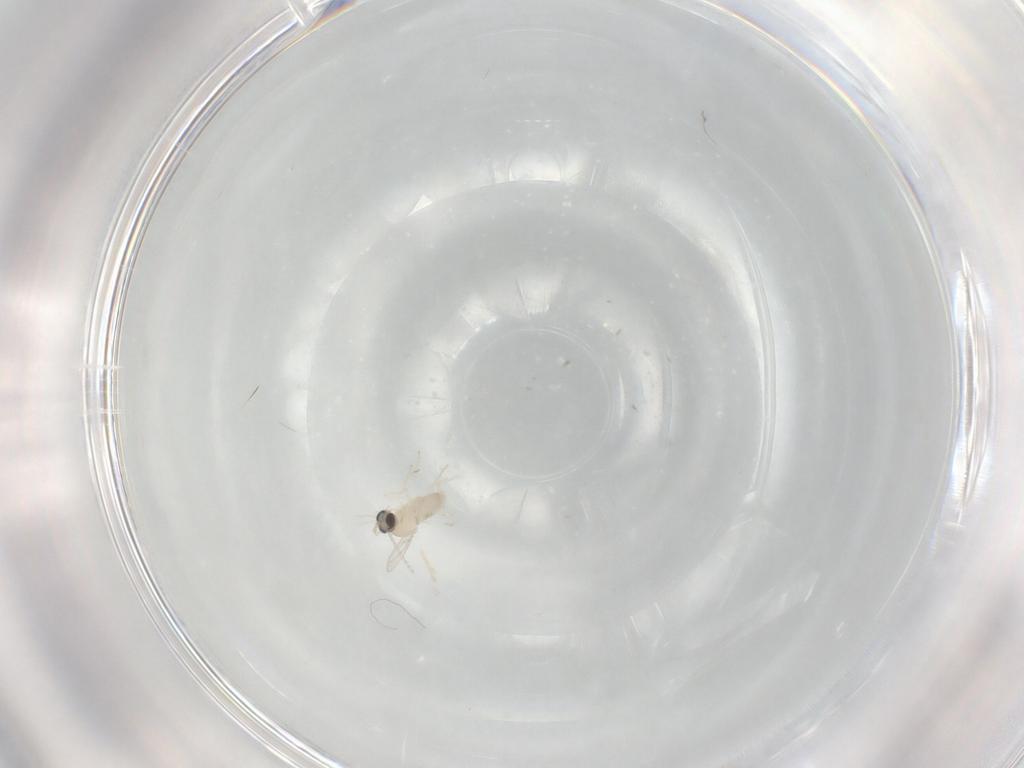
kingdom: Animalia
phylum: Arthropoda
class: Insecta
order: Diptera
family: Cecidomyiidae
